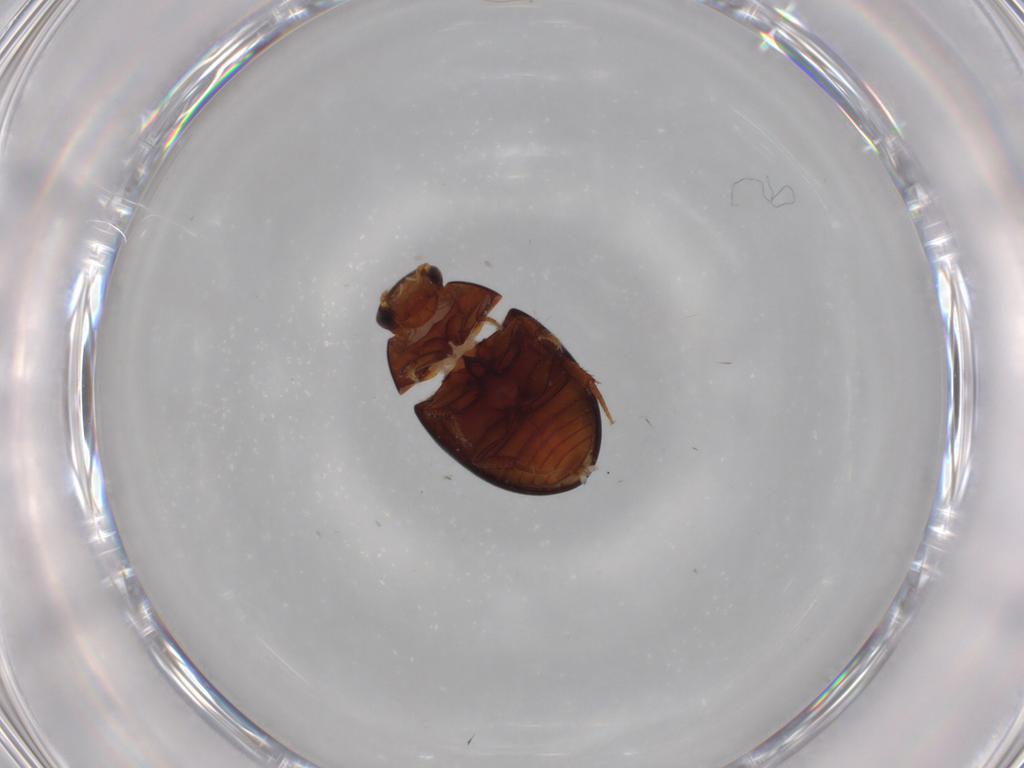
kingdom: Animalia
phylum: Arthropoda
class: Insecta
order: Coleoptera
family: Hydrophilidae
